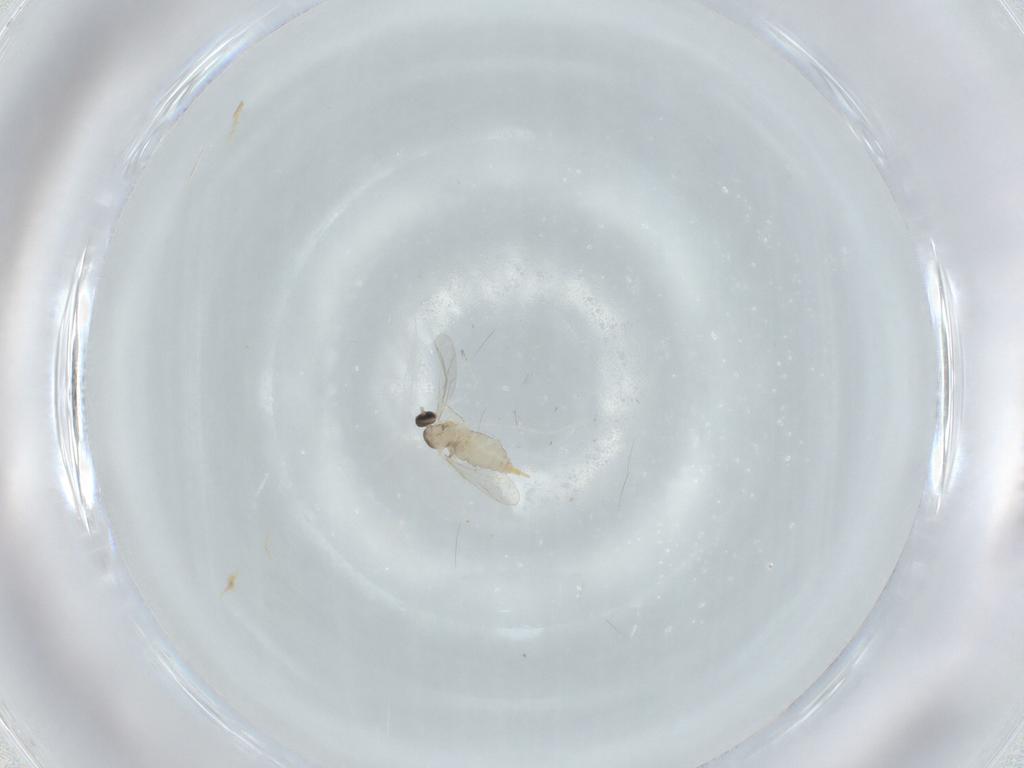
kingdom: Animalia
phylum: Arthropoda
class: Insecta
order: Diptera
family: Cecidomyiidae
